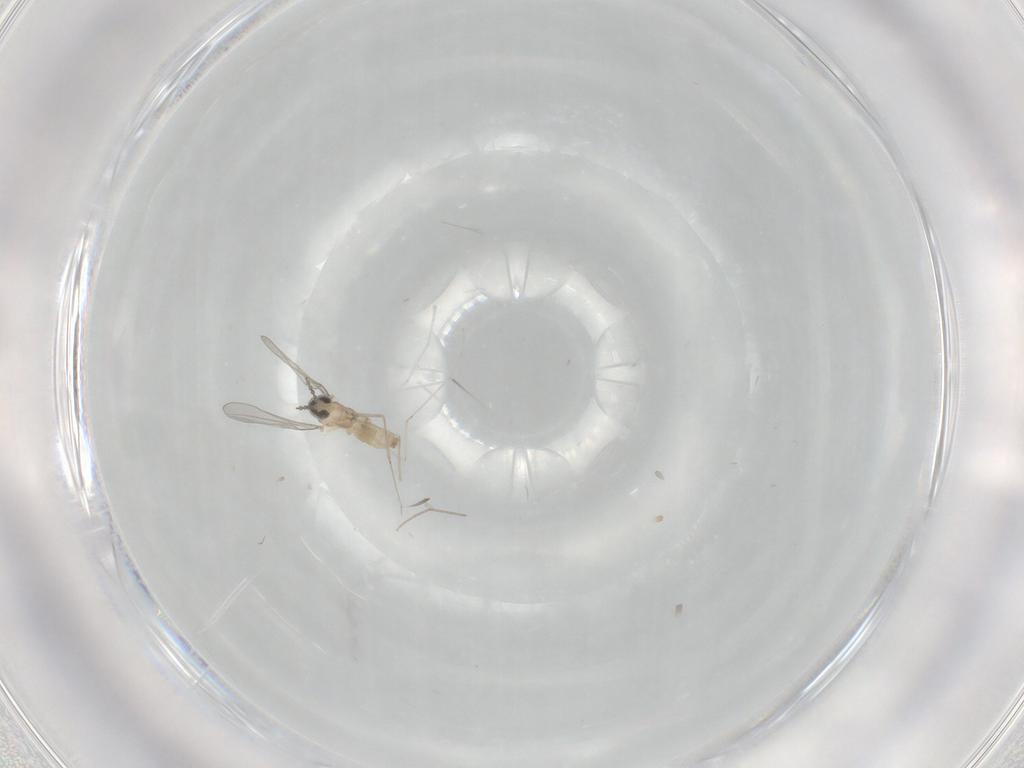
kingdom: Animalia
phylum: Arthropoda
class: Insecta
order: Diptera
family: Cecidomyiidae
